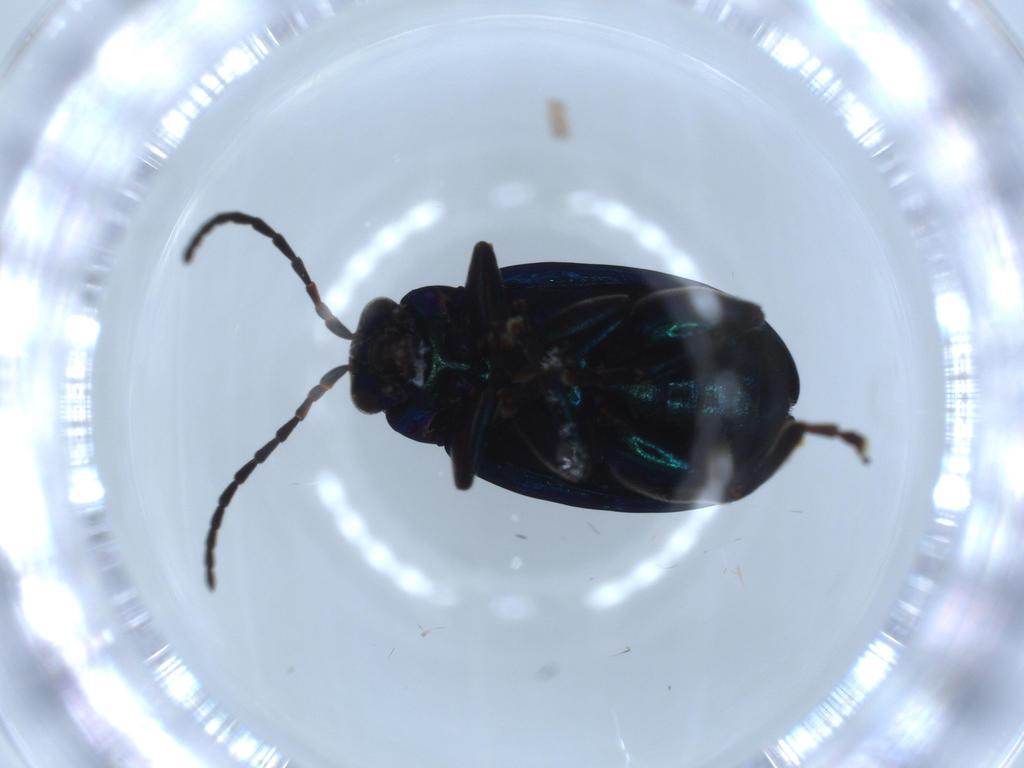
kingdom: Animalia
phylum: Arthropoda
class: Insecta
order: Coleoptera
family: Chrysomelidae
